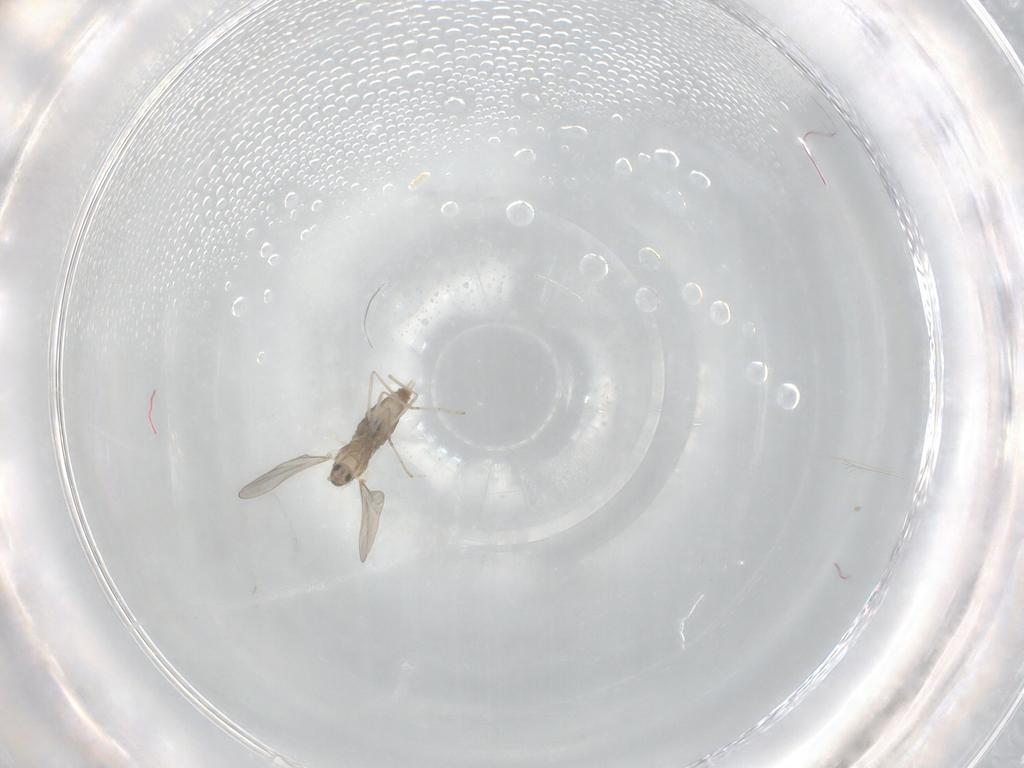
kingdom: Animalia
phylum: Arthropoda
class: Insecta
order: Diptera
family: Cecidomyiidae
